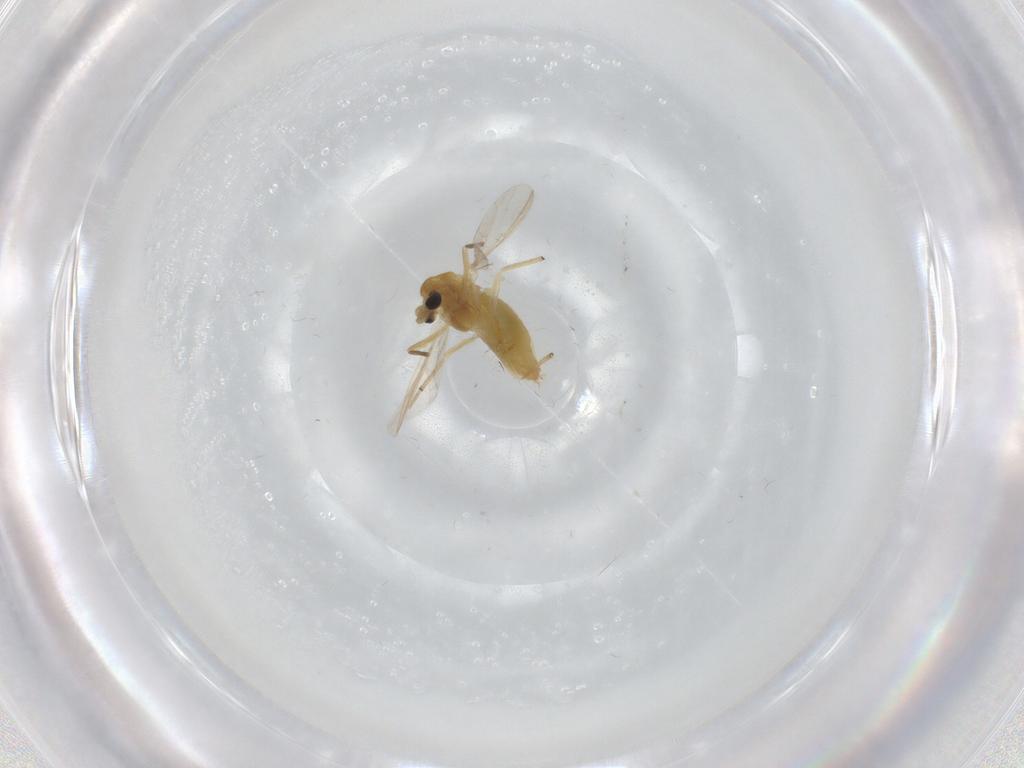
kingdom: Animalia
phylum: Arthropoda
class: Insecta
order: Diptera
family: Chironomidae
